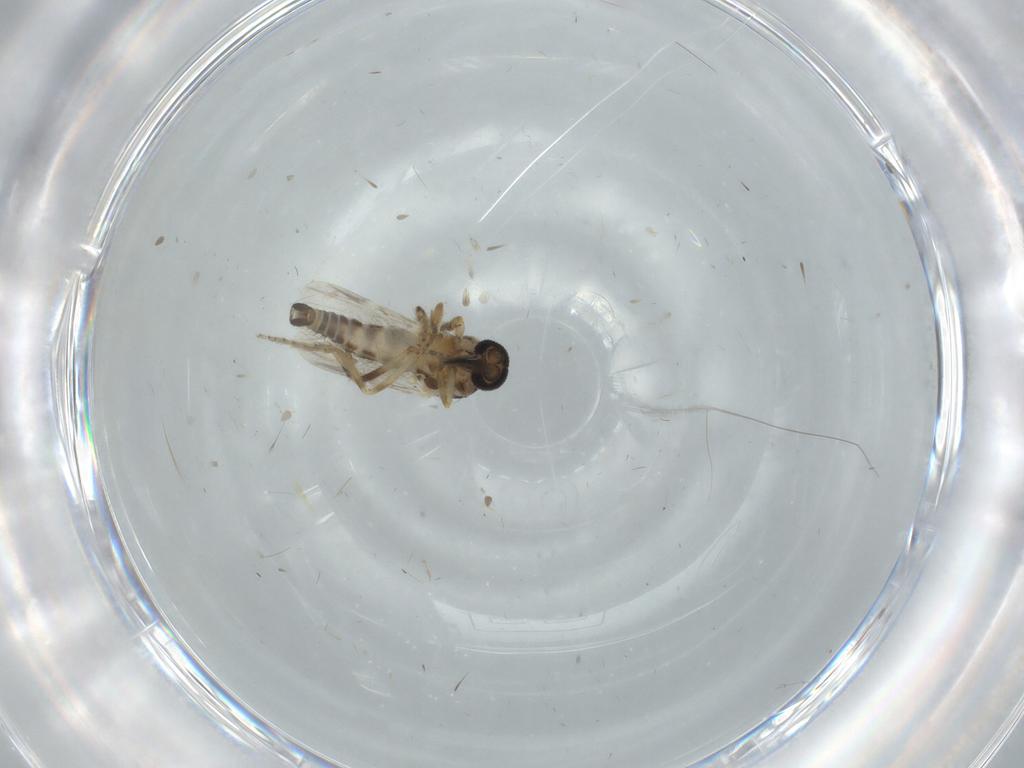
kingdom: Animalia
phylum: Arthropoda
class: Insecta
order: Diptera
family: Ceratopogonidae
